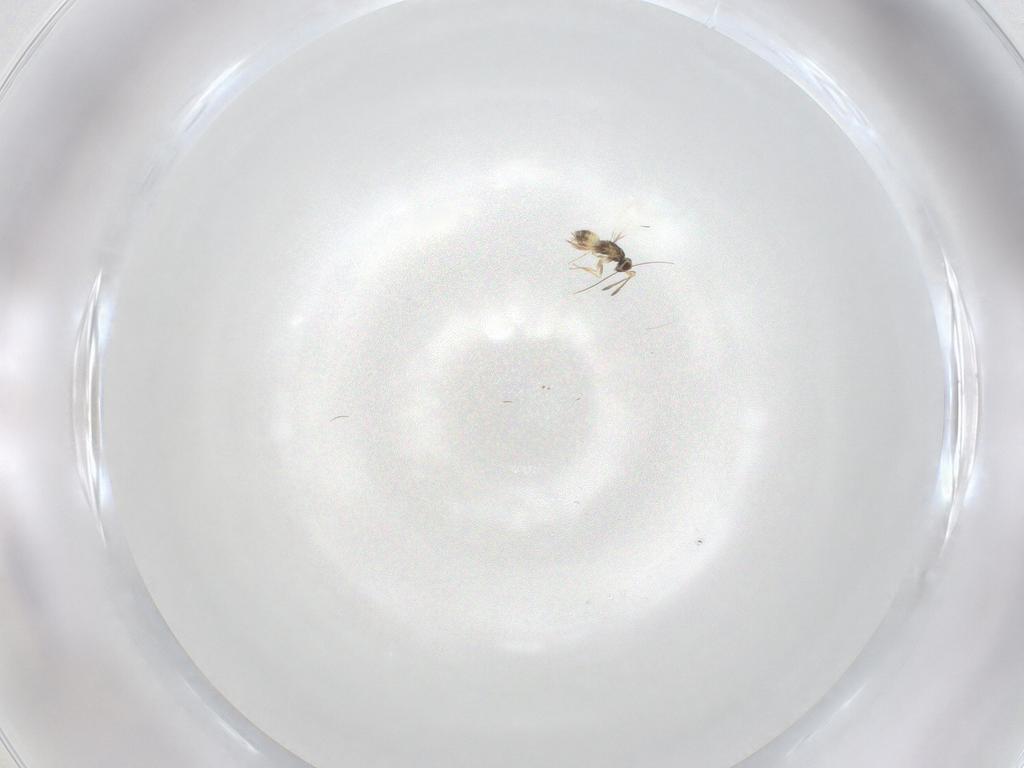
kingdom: Animalia
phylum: Arthropoda
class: Insecta
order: Hymenoptera
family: Mymaridae
